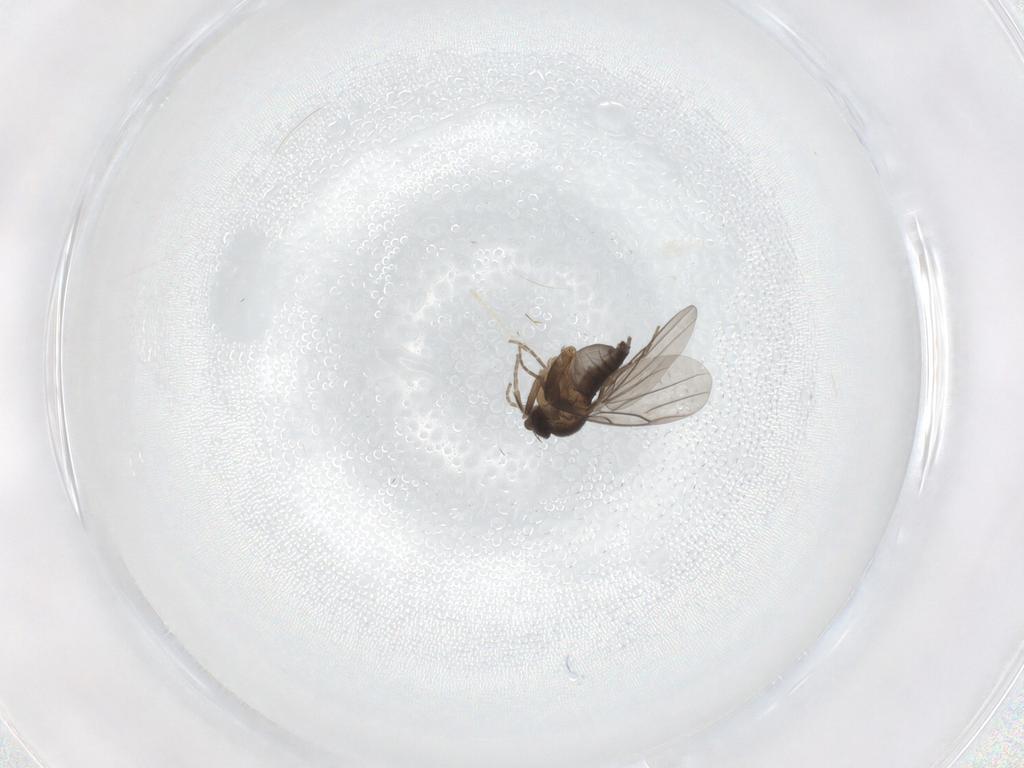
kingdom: Animalia
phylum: Arthropoda
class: Insecta
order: Diptera
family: Phoridae
